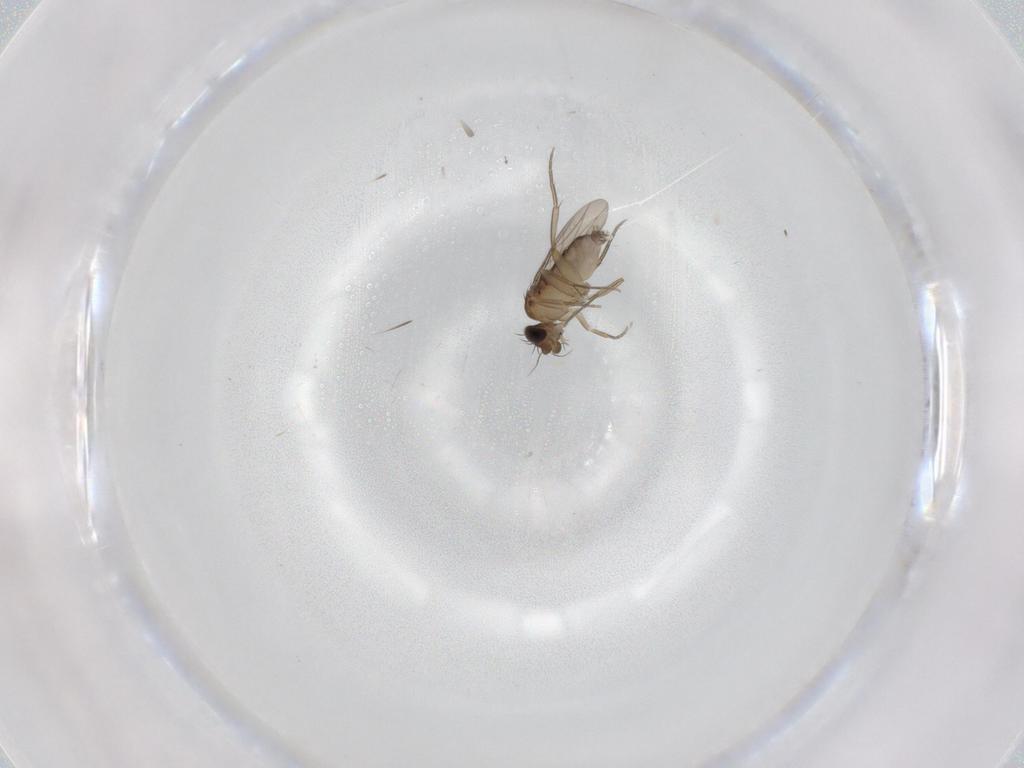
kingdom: Animalia
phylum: Arthropoda
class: Insecta
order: Diptera
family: Phoridae
